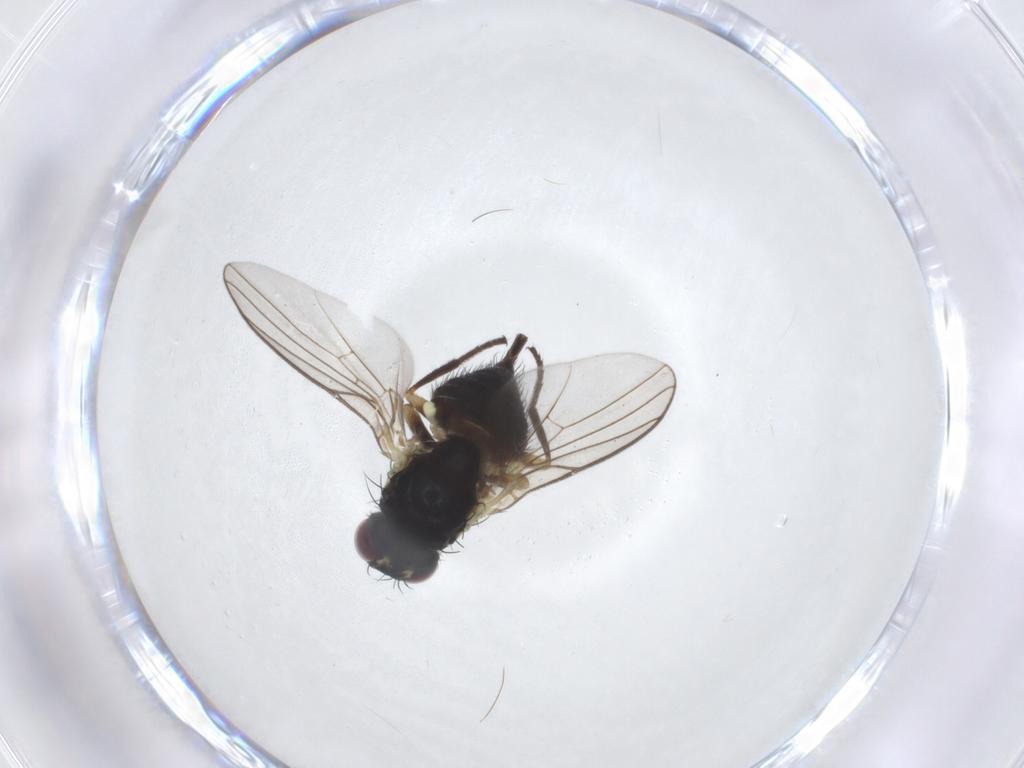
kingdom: Animalia
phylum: Arthropoda
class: Insecta
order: Diptera
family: Agromyzidae
